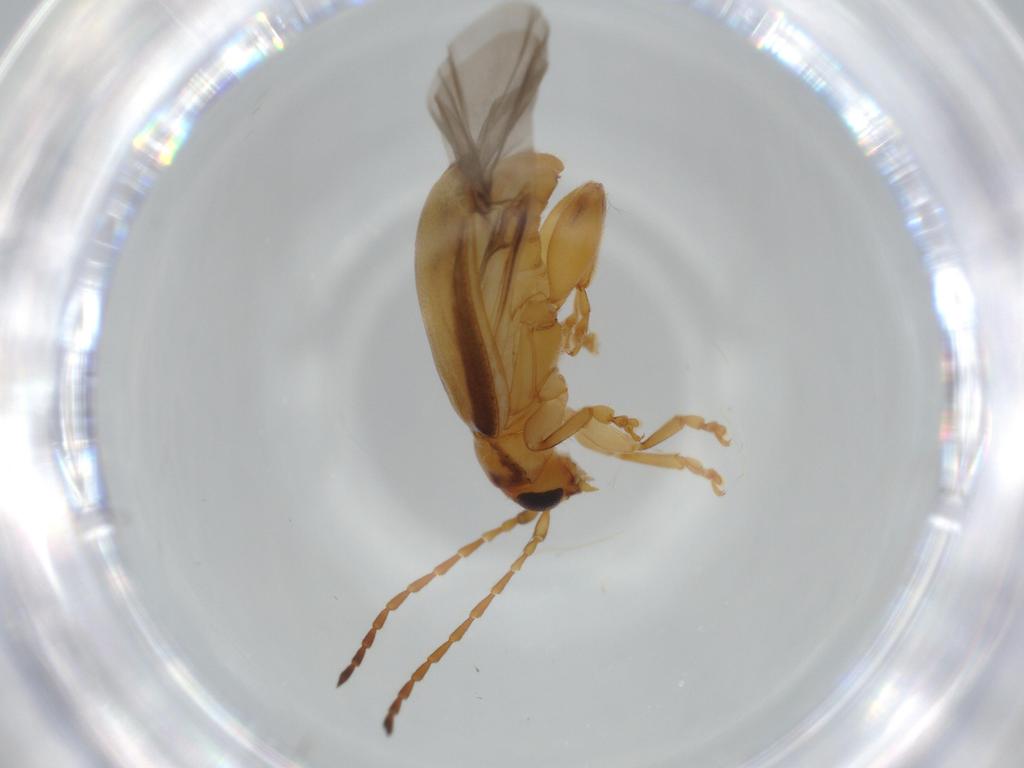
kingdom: Animalia
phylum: Arthropoda
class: Insecta
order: Coleoptera
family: Chrysomelidae
